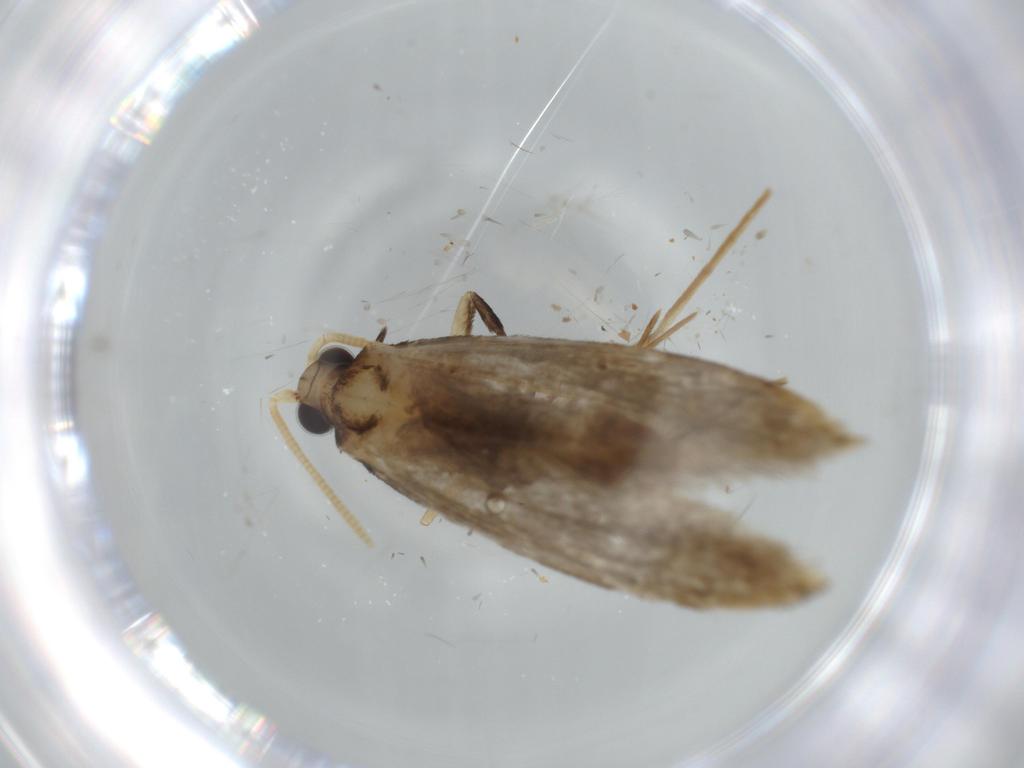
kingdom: Animalia
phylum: Arthropoda
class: Insecta
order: Lepidoptera
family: Tineidae
